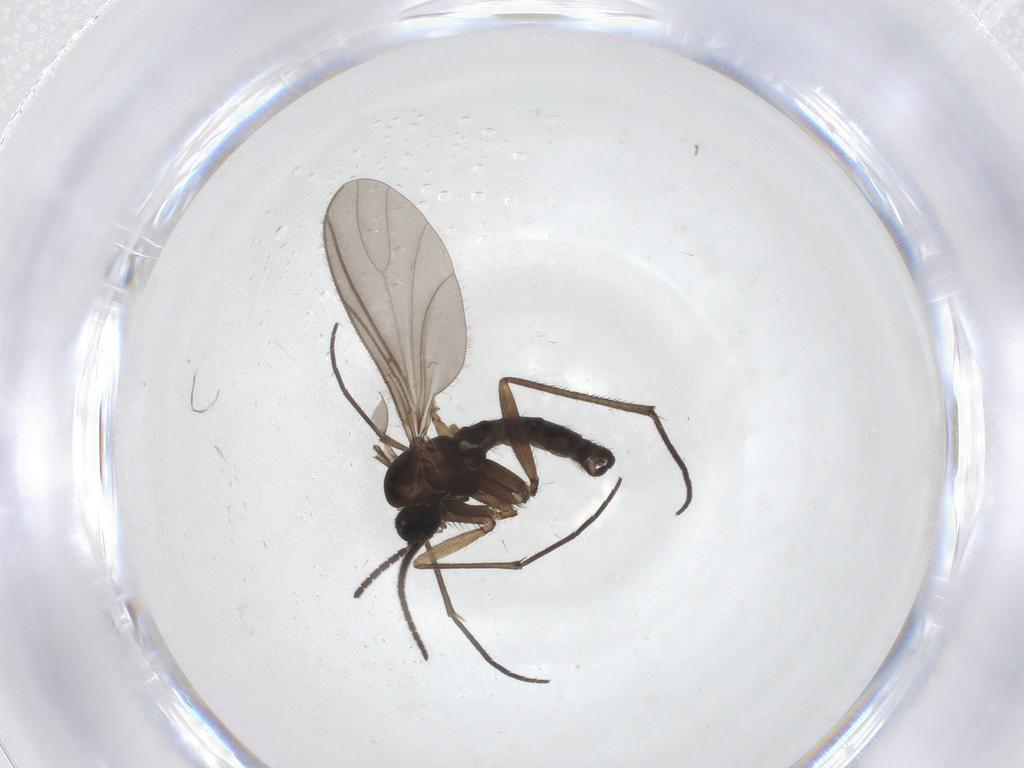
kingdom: Animalia
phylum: Arthropoda
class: Insecta
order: Diptera
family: Sciaridae
